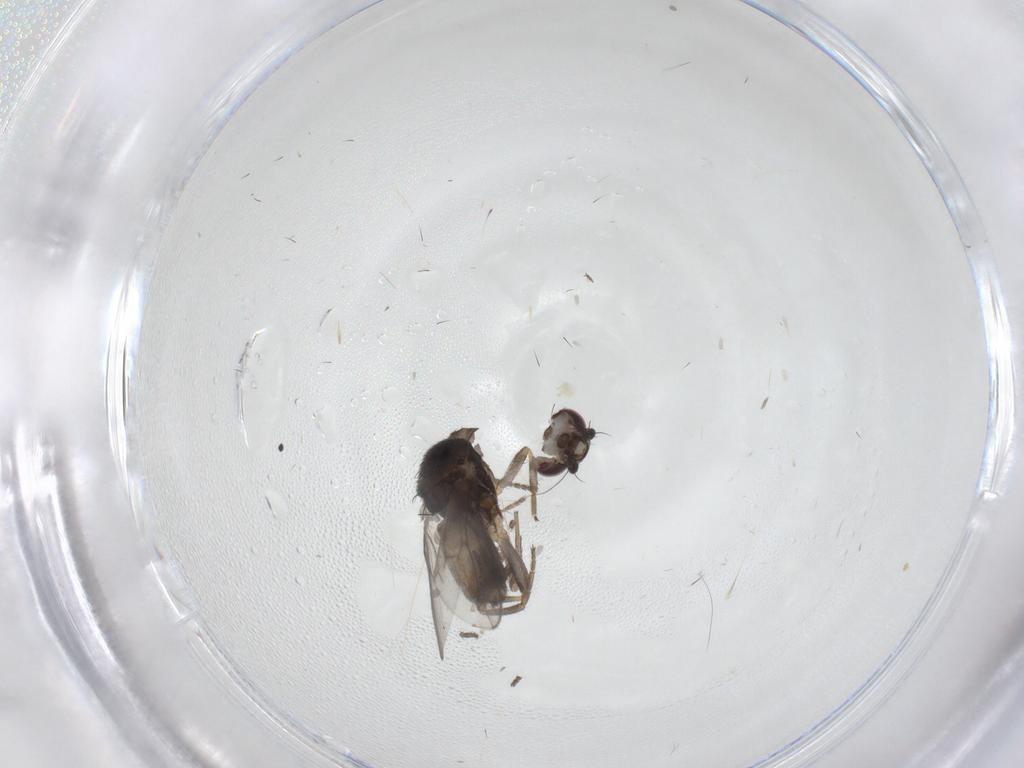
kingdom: Animalia
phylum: Arthropoda
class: Insecta
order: Diptera
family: Sphaeroceridae
